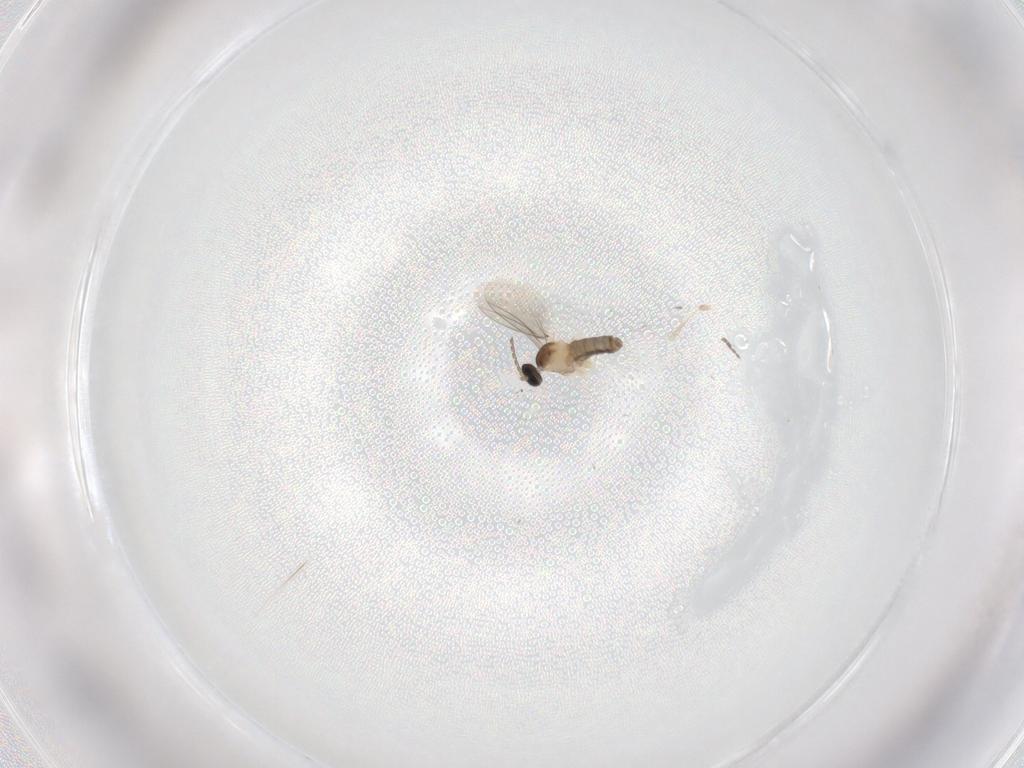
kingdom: Animalia
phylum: Arthropoda
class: Insecta
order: Diptera
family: Cecidomyiidae
